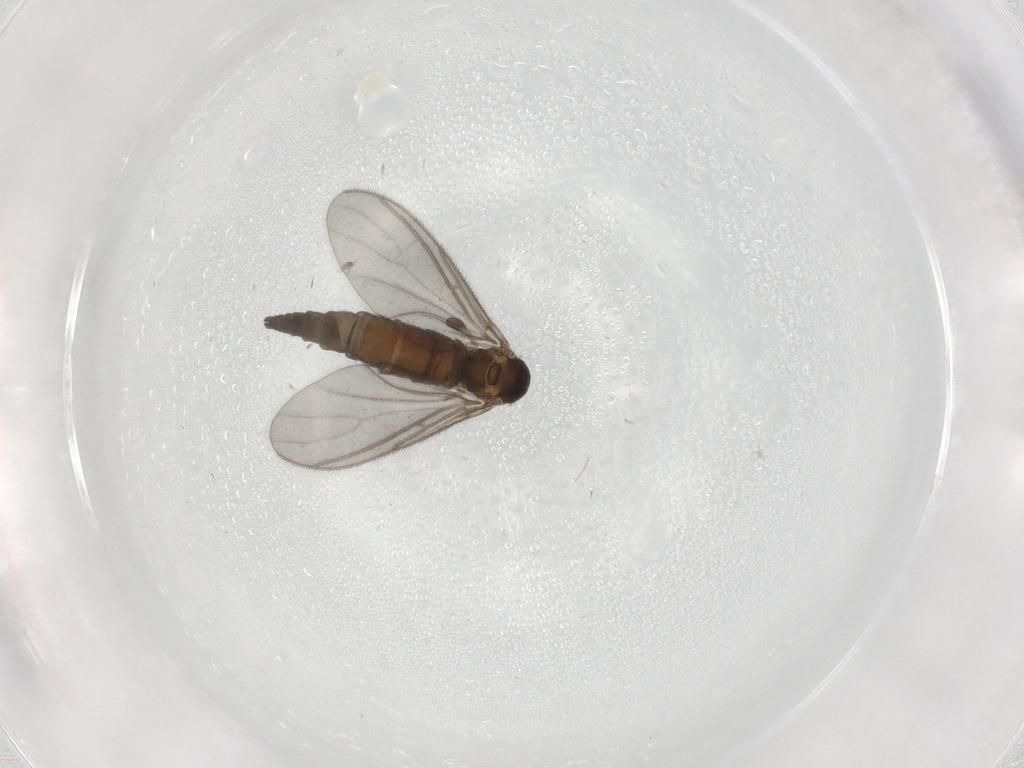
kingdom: Animalia
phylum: Arthropoda
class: Insecta
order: Diptera
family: Sciaridae
